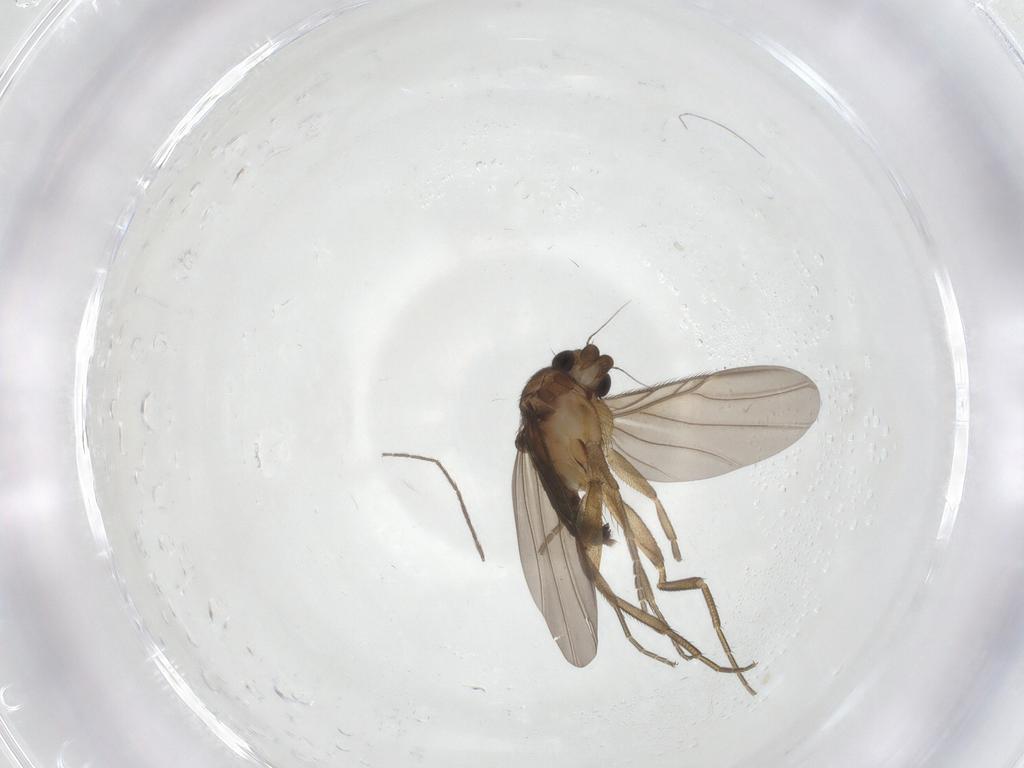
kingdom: Animalia
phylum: Arthropoda
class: Insecta
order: Diptera
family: Phoridae
